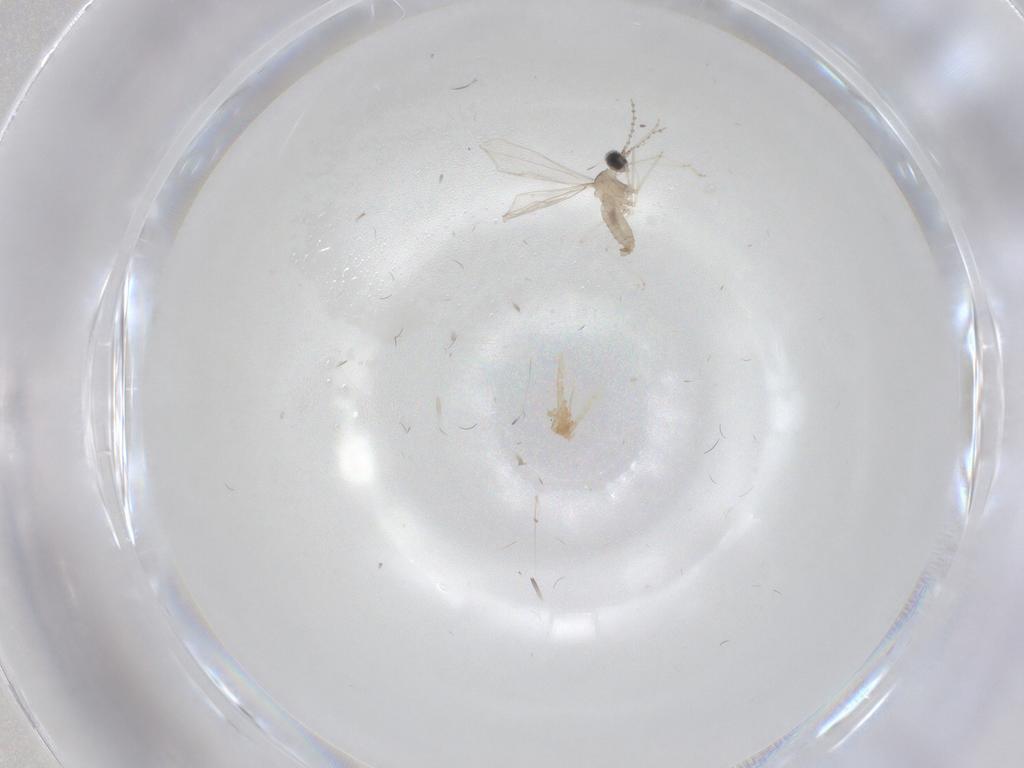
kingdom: Animalia
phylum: Arthropoda
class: Insecta
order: Diptera
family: Cecidomyiidae
